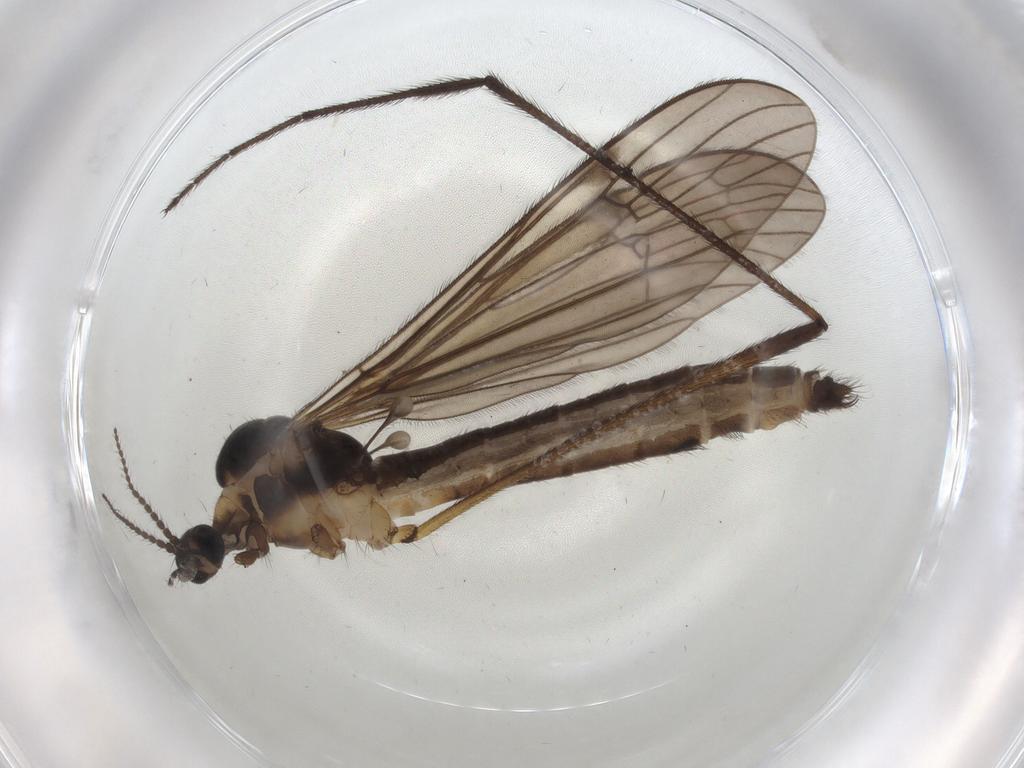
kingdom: Animalia
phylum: Arthropoda
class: Insecta
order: Diptera
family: Limoniidae
